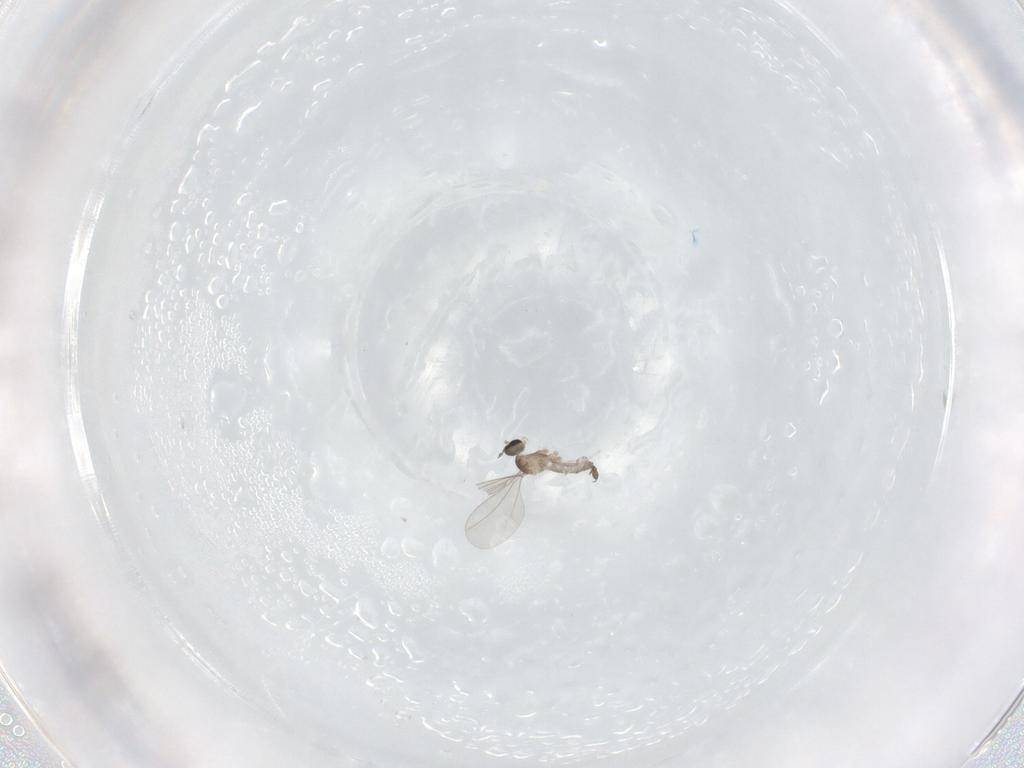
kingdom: Animalia
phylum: Arthropoda
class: Insecta
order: Diptera
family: Cecidomyiidae
